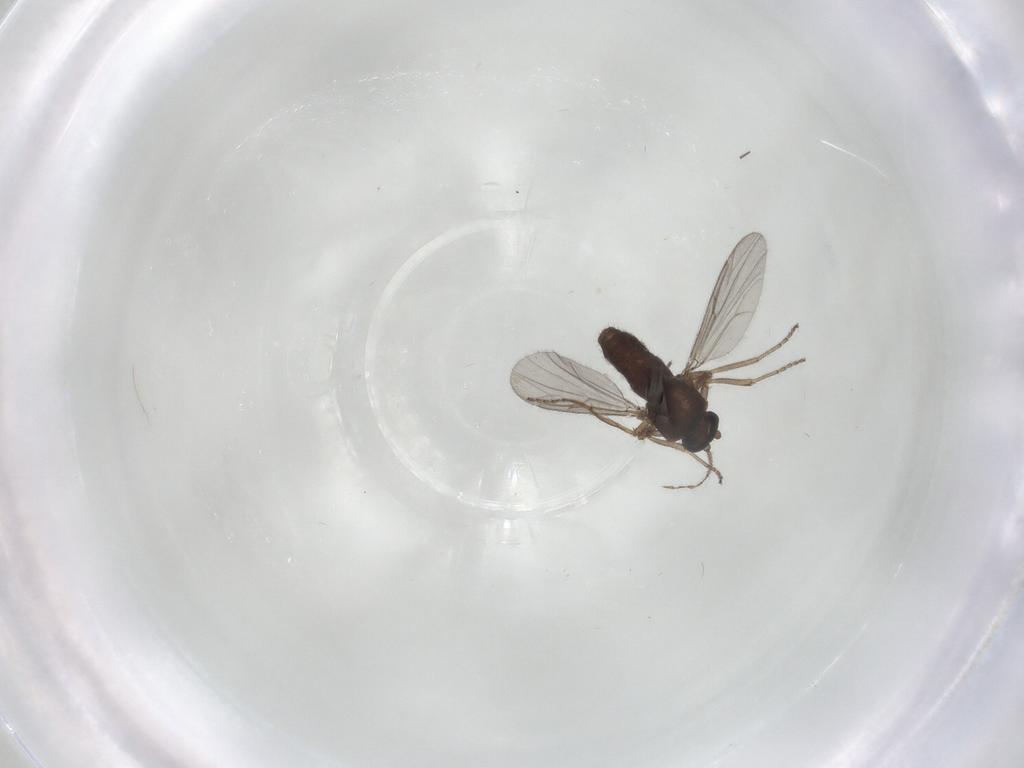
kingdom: Animalia
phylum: Arthropoda
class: Insecta
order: Diptera
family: Ceratopogonidae
